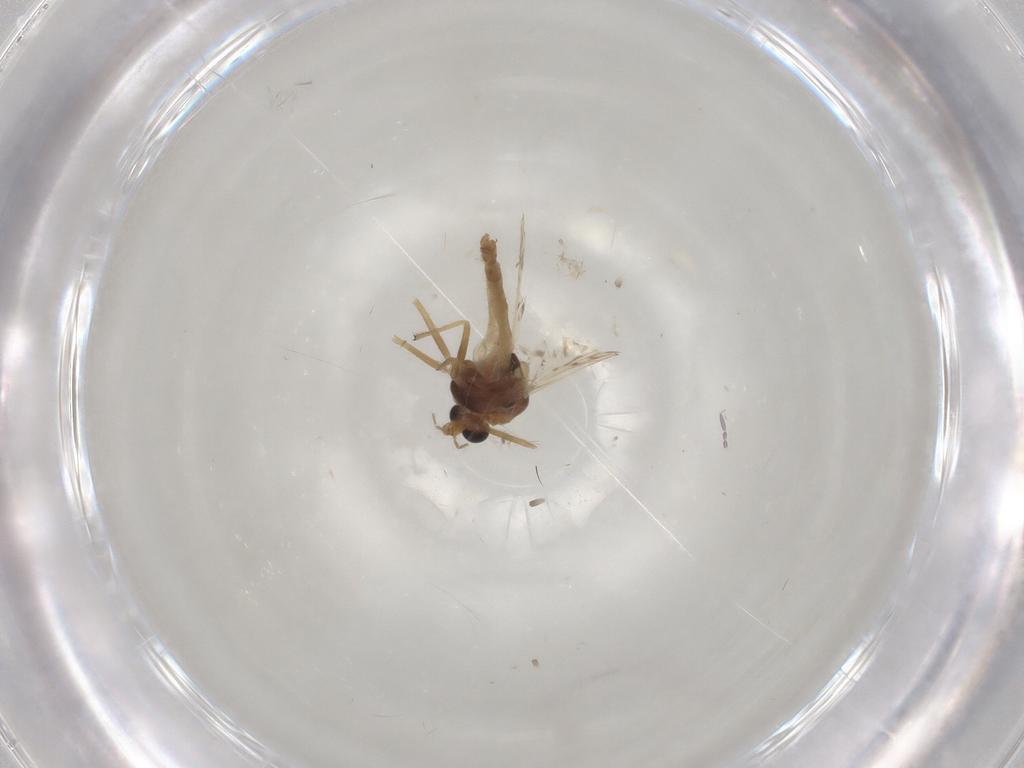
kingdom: Animalia
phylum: Arthropoda
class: Insecta
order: Diptera
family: Chironomidae
